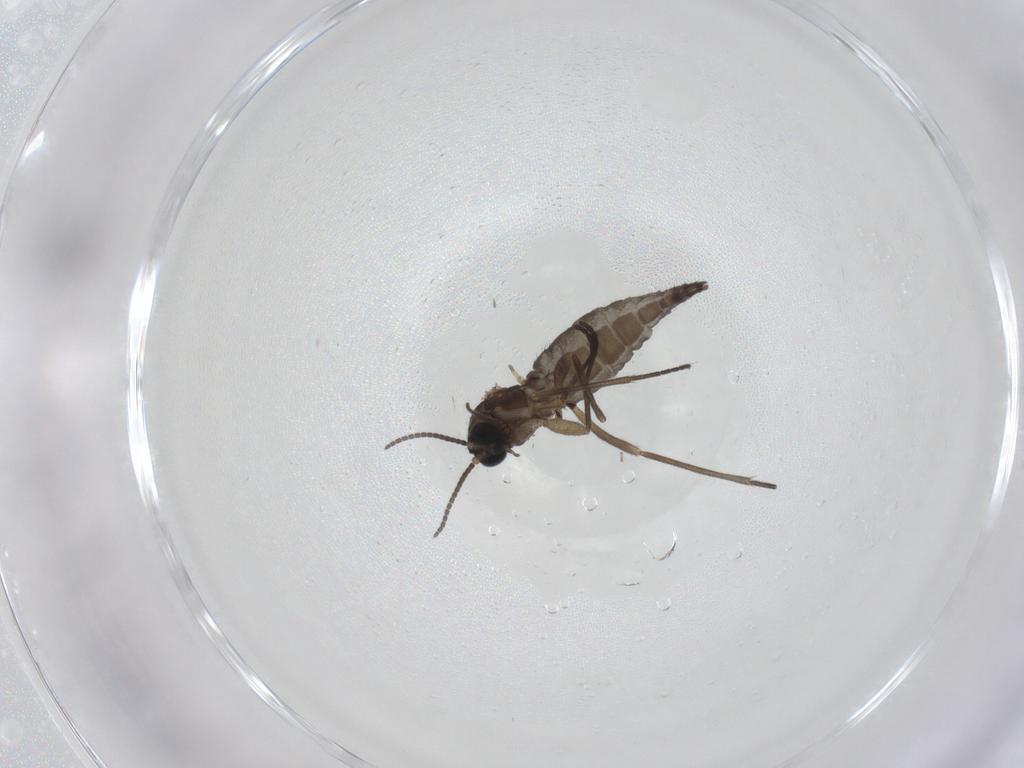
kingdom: Animalia
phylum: Arthropoda
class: Insecta
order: Diptera
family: Sciaridae
